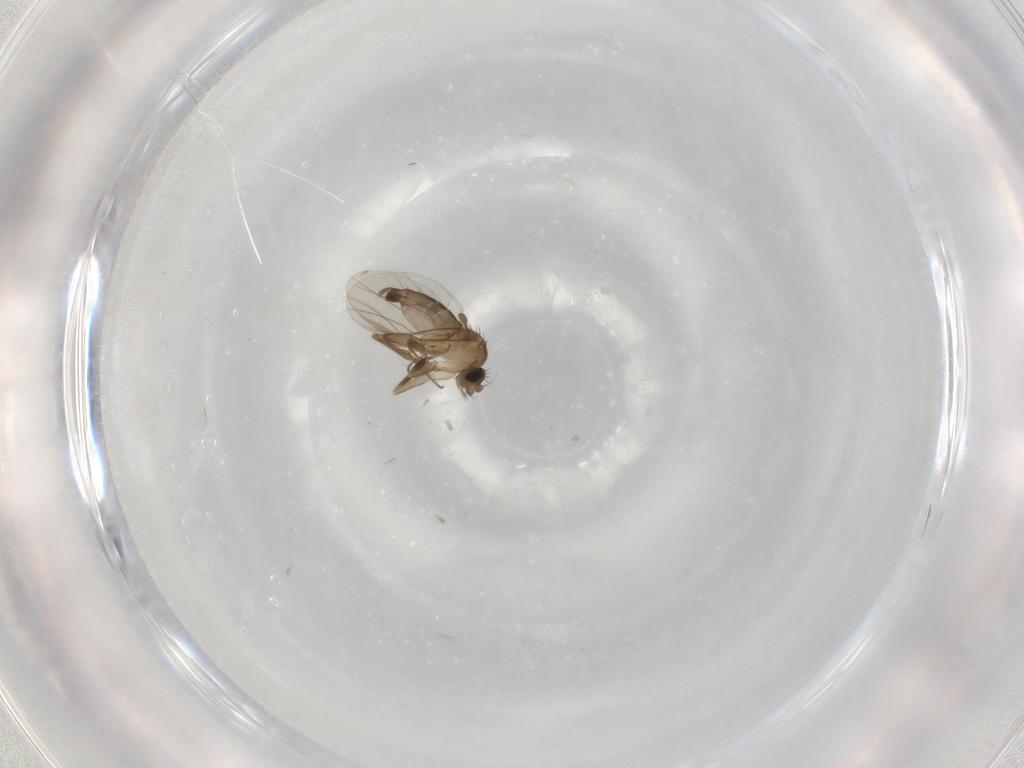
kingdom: Animalia
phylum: Arthropoda
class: Insecta
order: Diptera
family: Phoridae
